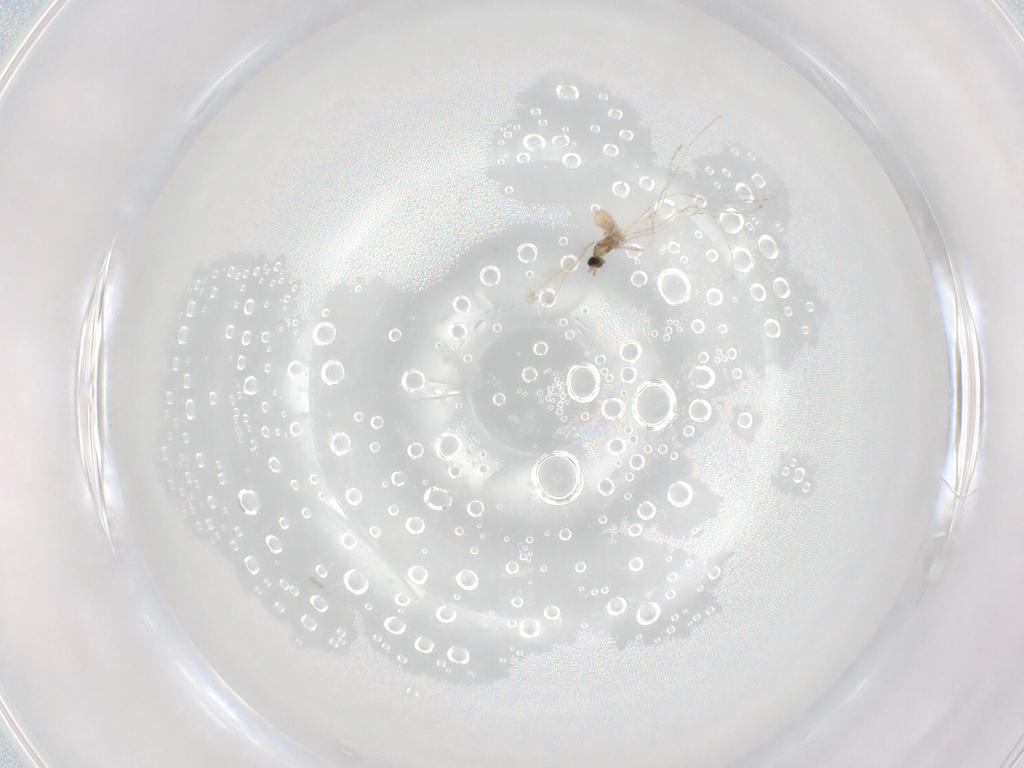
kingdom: Animalia
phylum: Arthropoda
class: Insecta
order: Diptera
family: Cecidomyiidae
